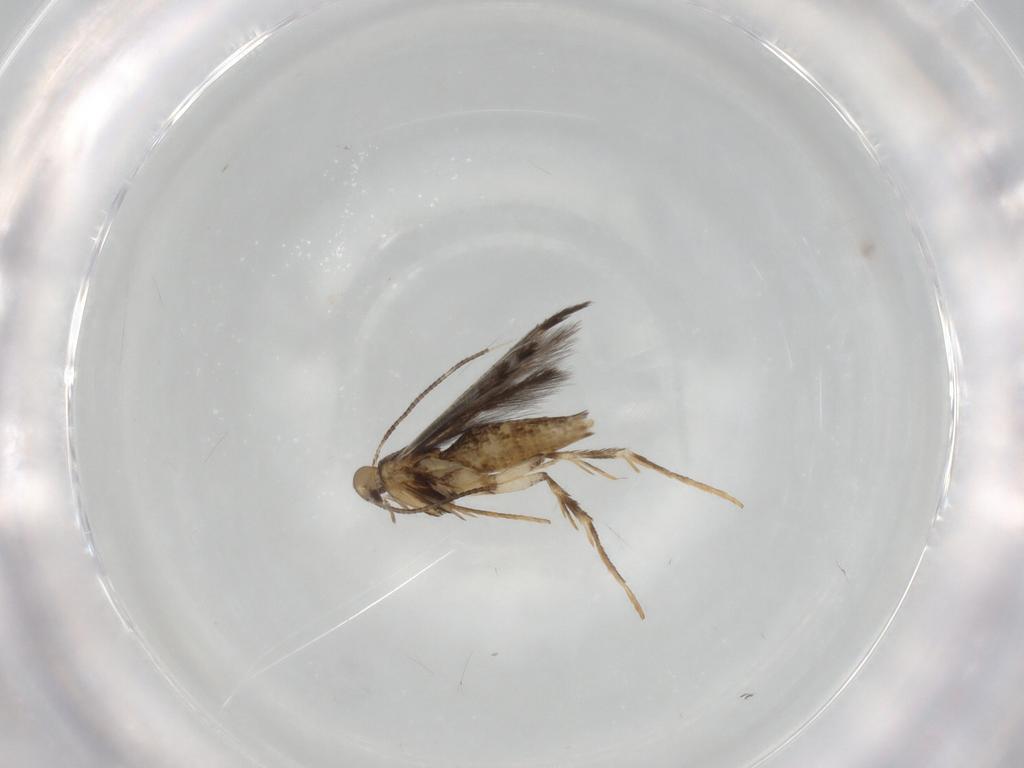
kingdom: Animalia
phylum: Arthropoda
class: Insecta
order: Lepidoptera
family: Gracillariidae
